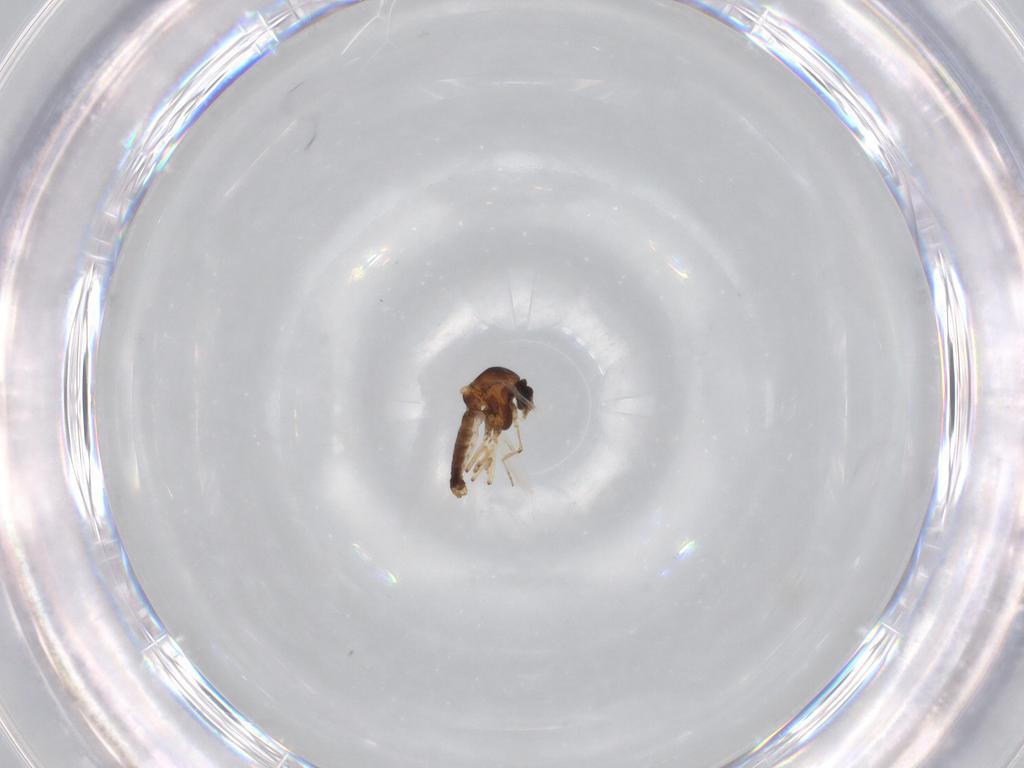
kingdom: Animalia
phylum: Arthropoda
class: Insecta
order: Diptera
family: Ceratopogonidae
